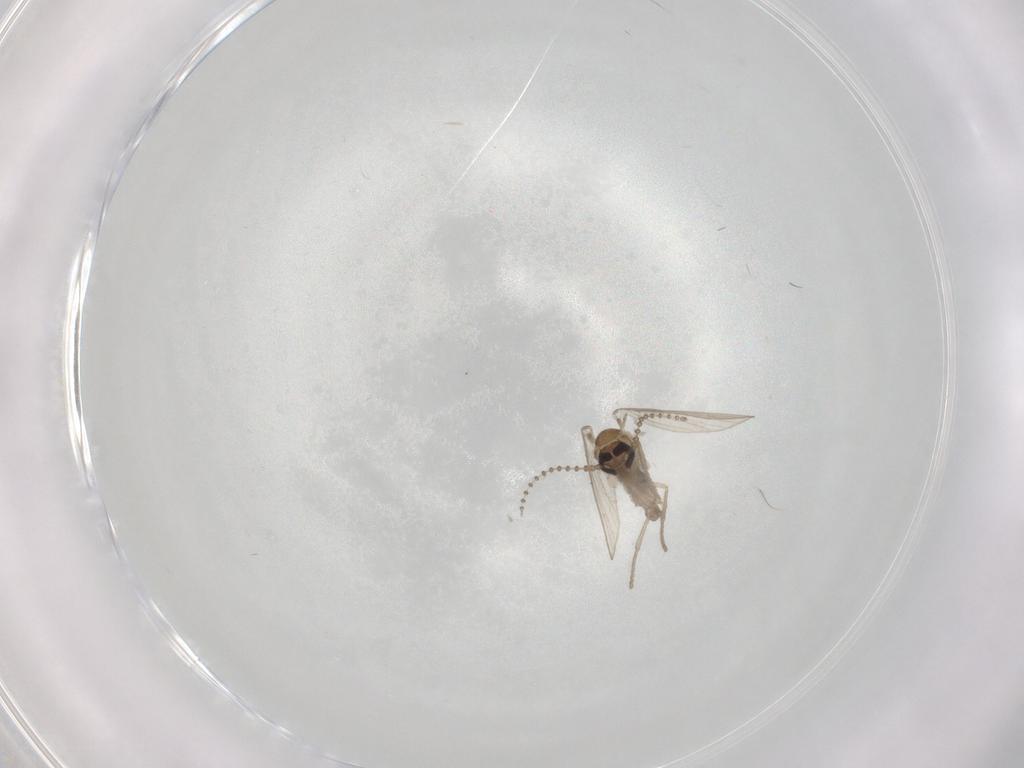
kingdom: Animalia
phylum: Arthropoda
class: Insecta
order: Diptera
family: Psychodidae
